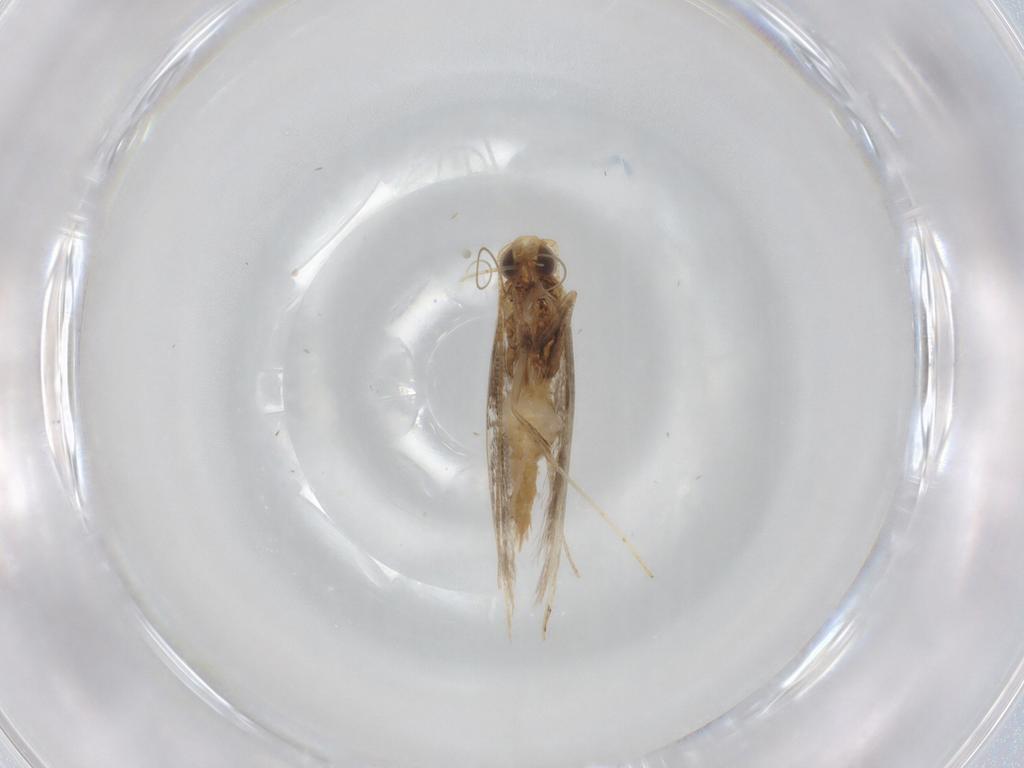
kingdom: Animalia
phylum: Arthropoda
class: Insecta
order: Lepidoptera
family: Gracillariidae
